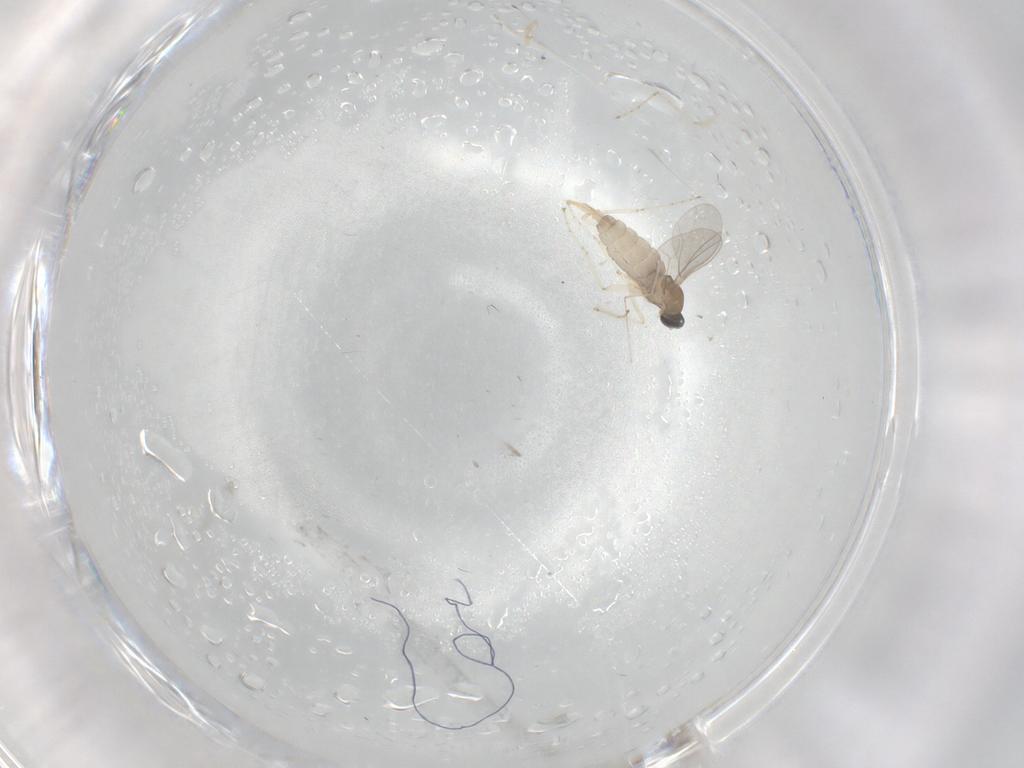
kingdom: Animalia
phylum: Arthropoda
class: Insecta
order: Diptera
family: Cecidomyiidae
